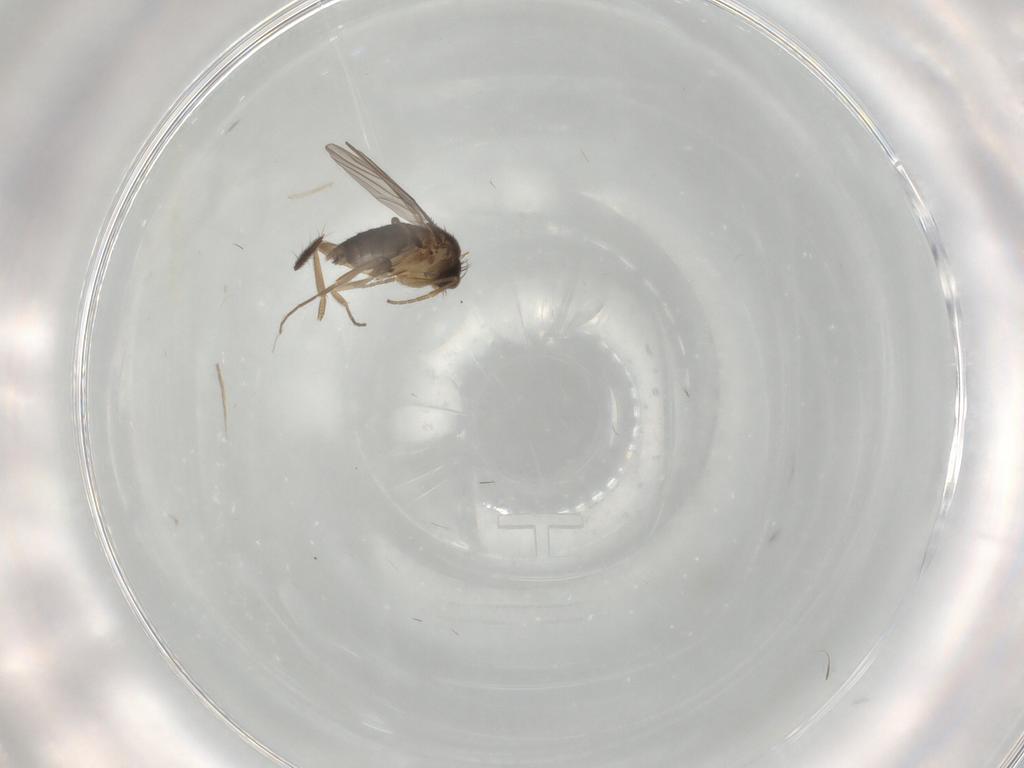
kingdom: Animalia
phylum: Arthropoda
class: Insecta
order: Diptera
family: Phoridae
